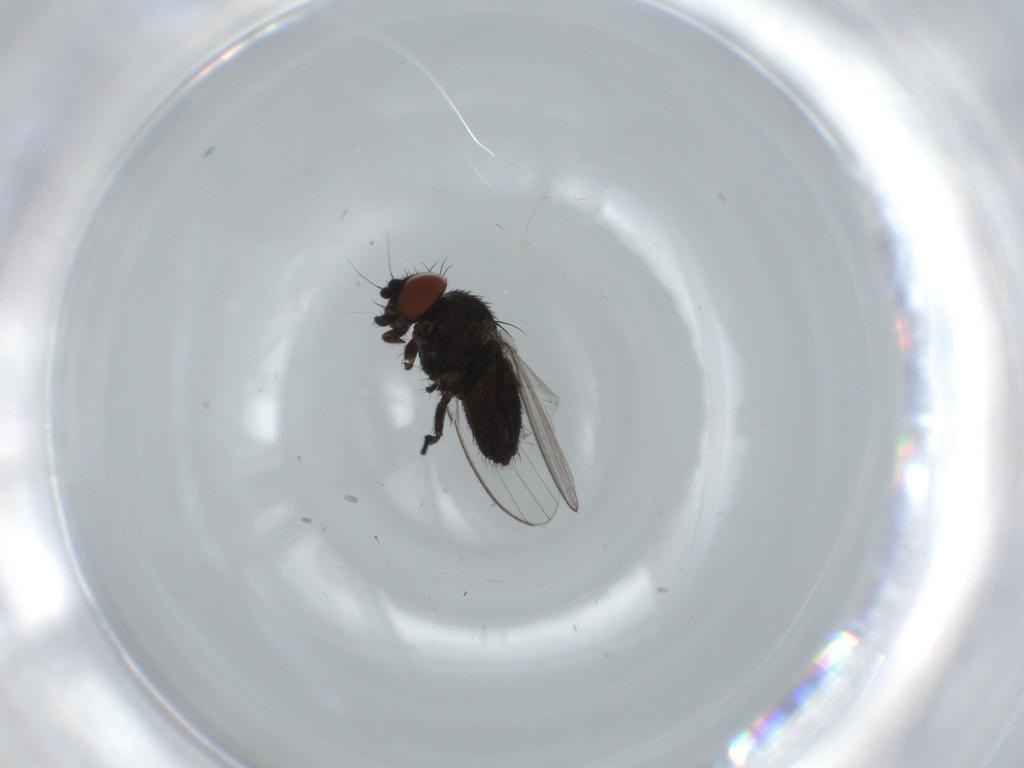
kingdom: Animalia
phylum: Arthropoda
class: Insecta
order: Diptera
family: Milichiidae
